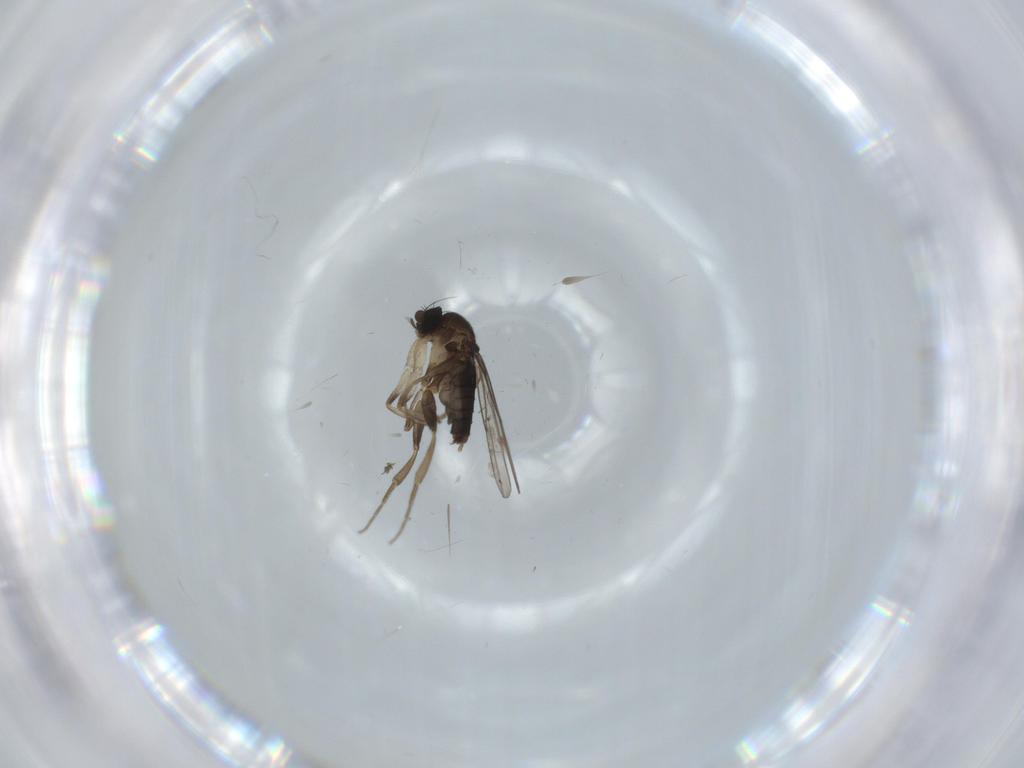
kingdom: Animalia
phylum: Arthropoda
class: Insecta
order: Diptera
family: Phoridae
